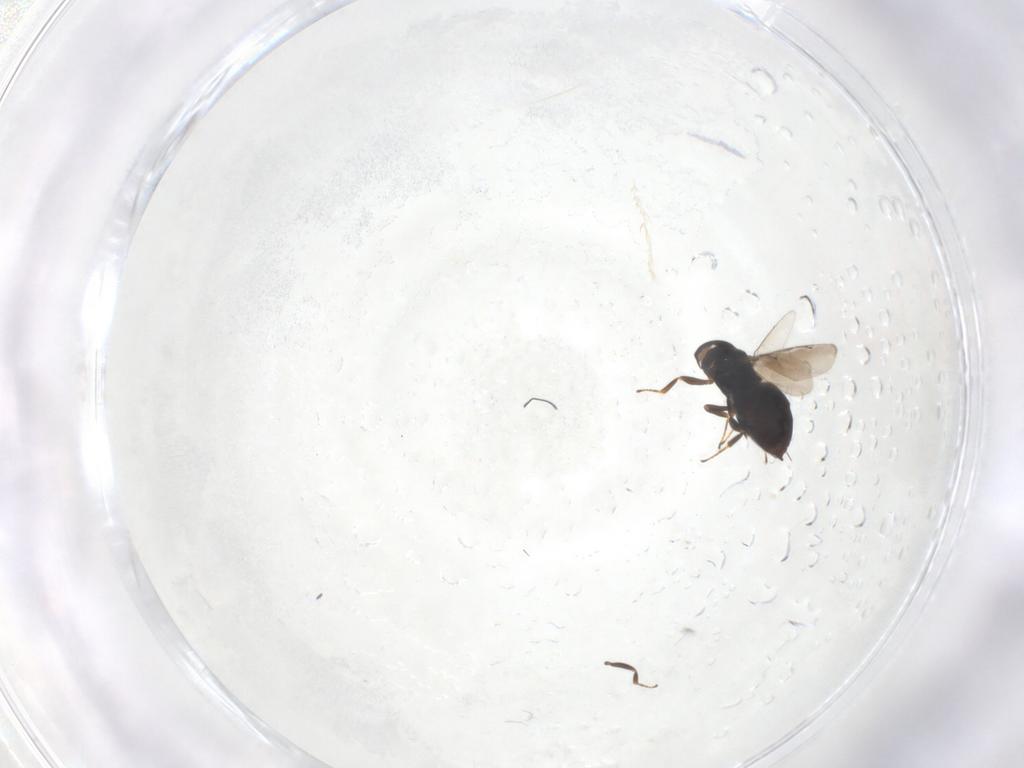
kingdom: Animalia
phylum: Arthropoda
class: Insecta
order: Hymenoptera
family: Eunotidae
